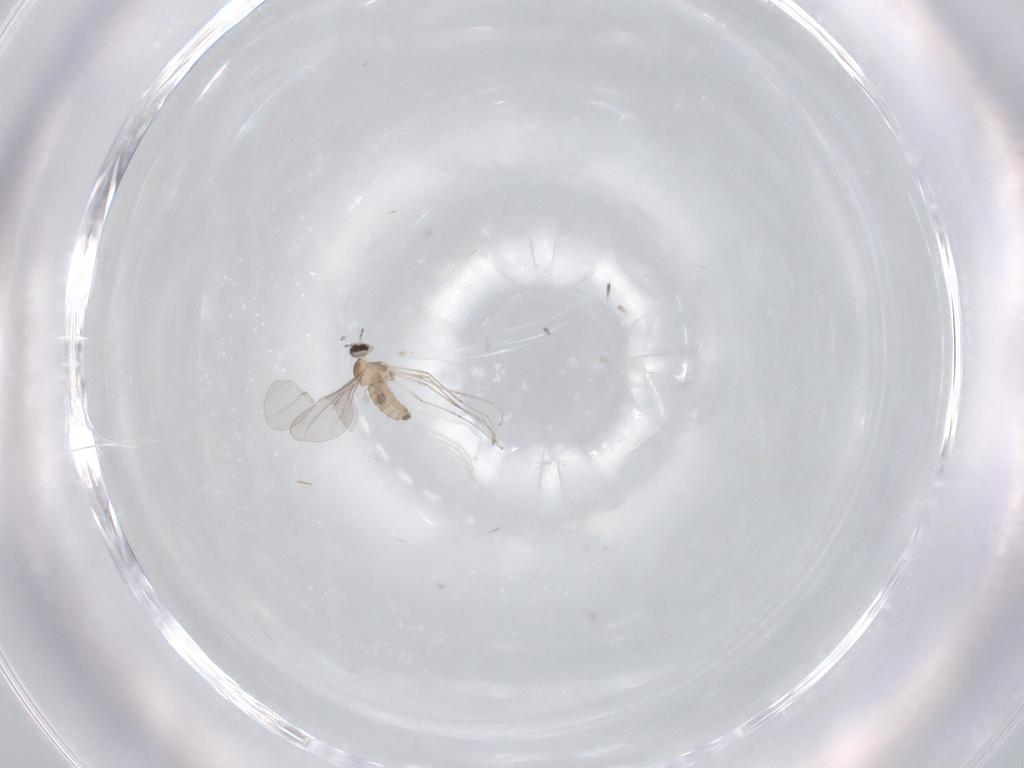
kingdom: Animalia
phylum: Arthropoda
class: Insecta
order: Diptera
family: Cecidomyiidae
